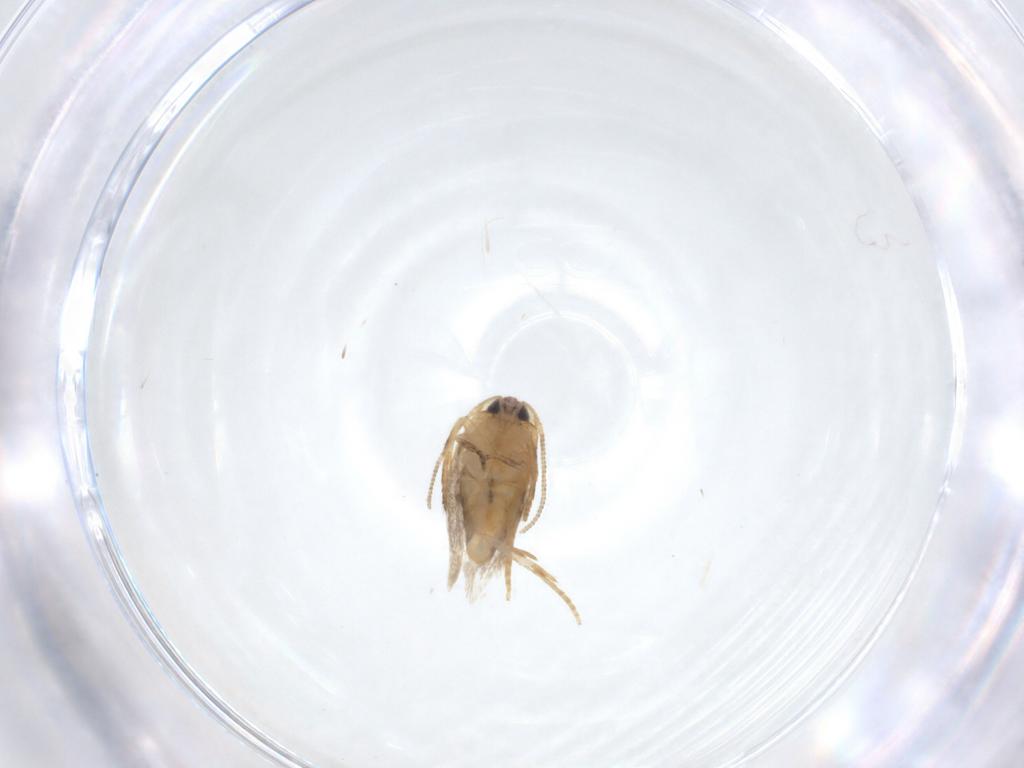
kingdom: Animalia
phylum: Arthropoda
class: Insecta
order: Lepidoptera
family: Nepticulidae
